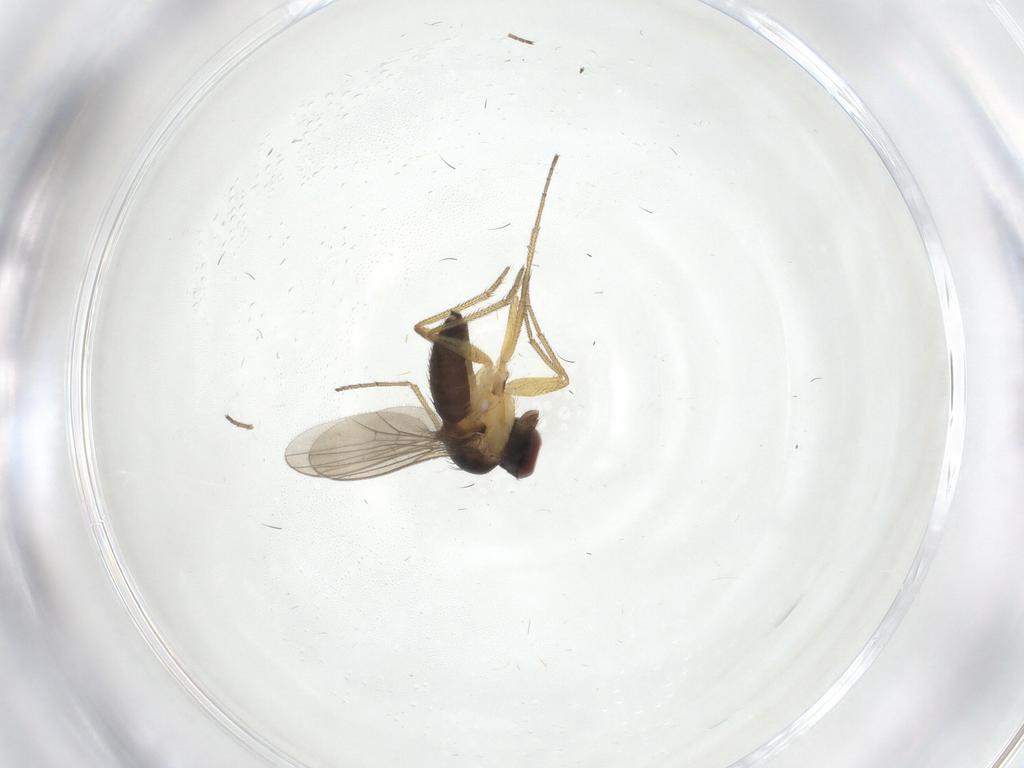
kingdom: Animalia
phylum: Arthropoda
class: Insecta
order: Diptera
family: Dolichopodidae
